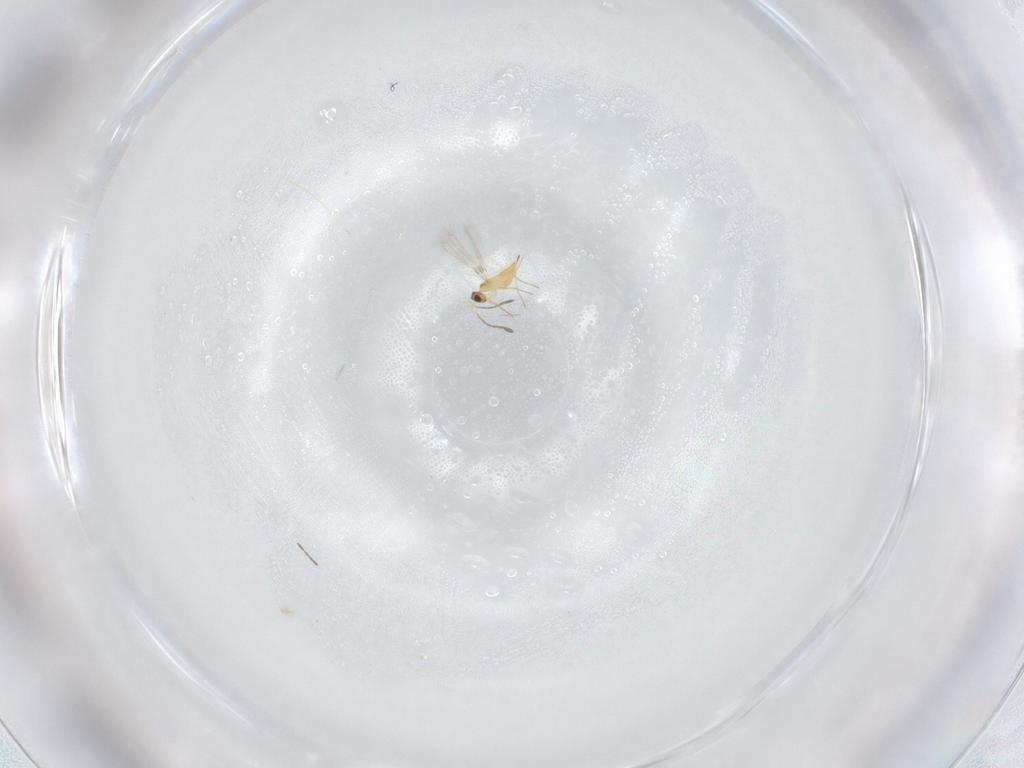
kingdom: Animalia
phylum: Arthropoda
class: Insecta
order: Hymenoptera
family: Mymaridae
